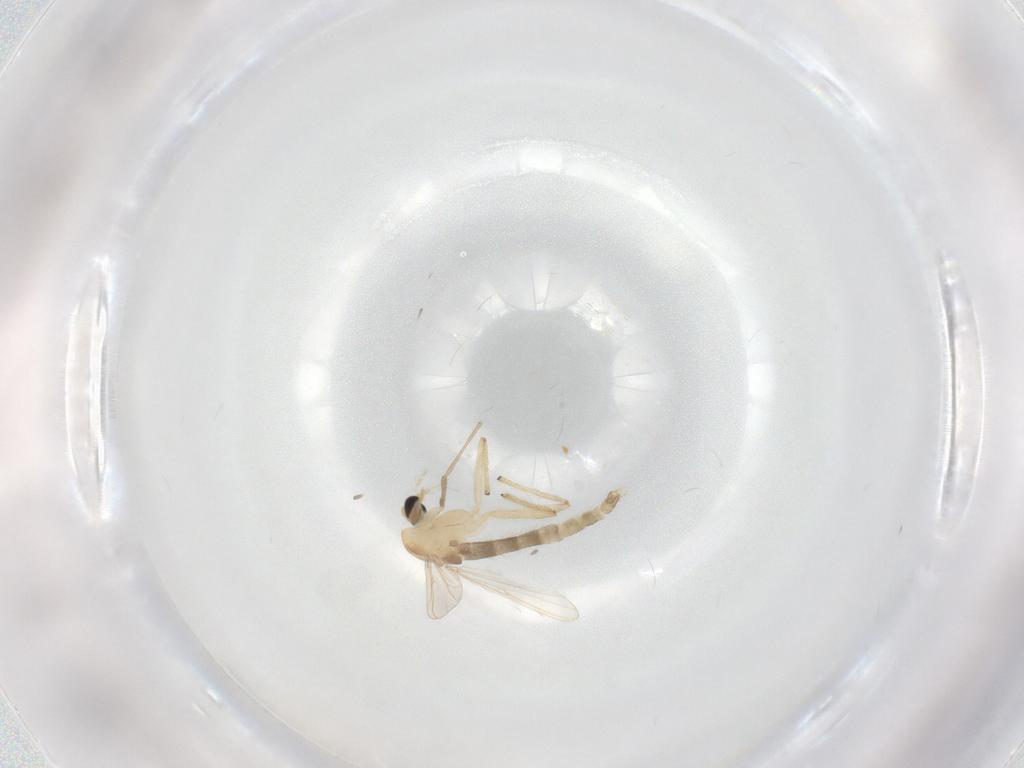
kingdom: Animalia
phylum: Arthropoda
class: Insecta
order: Diptera
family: Chironomidae
